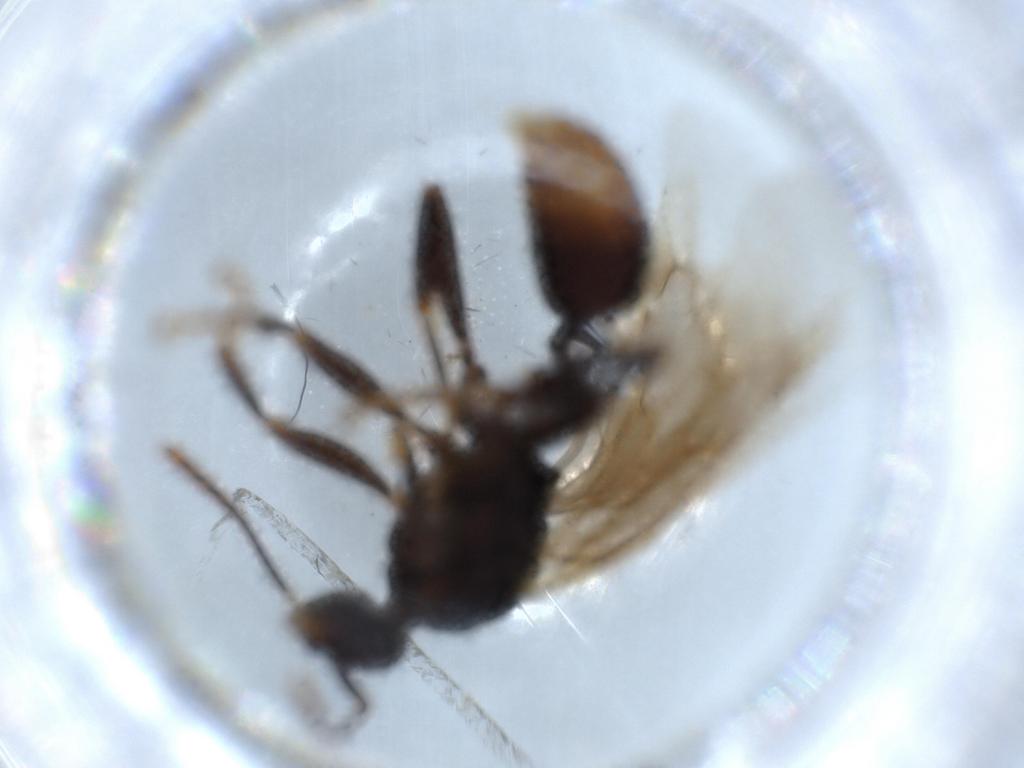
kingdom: Animalia
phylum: Arthropoda
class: Insecta
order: Hymenoptera
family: Formicidae
